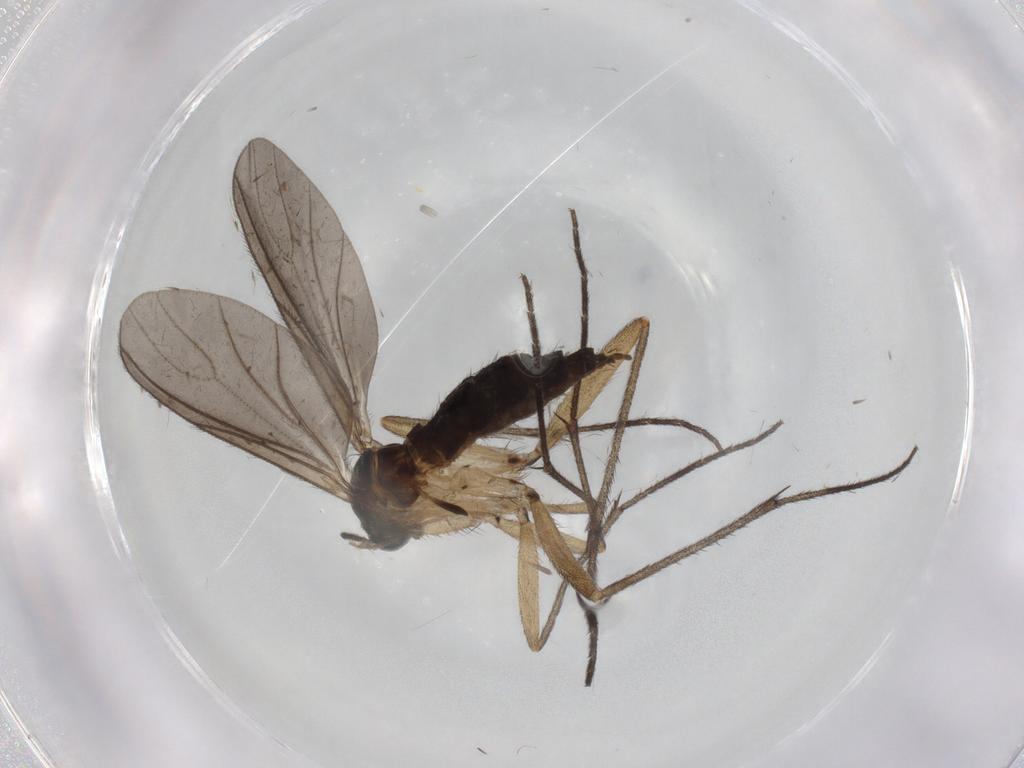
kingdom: Animalia
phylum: Arthropoda
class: Insecta
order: Diptera
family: Sciaridae
